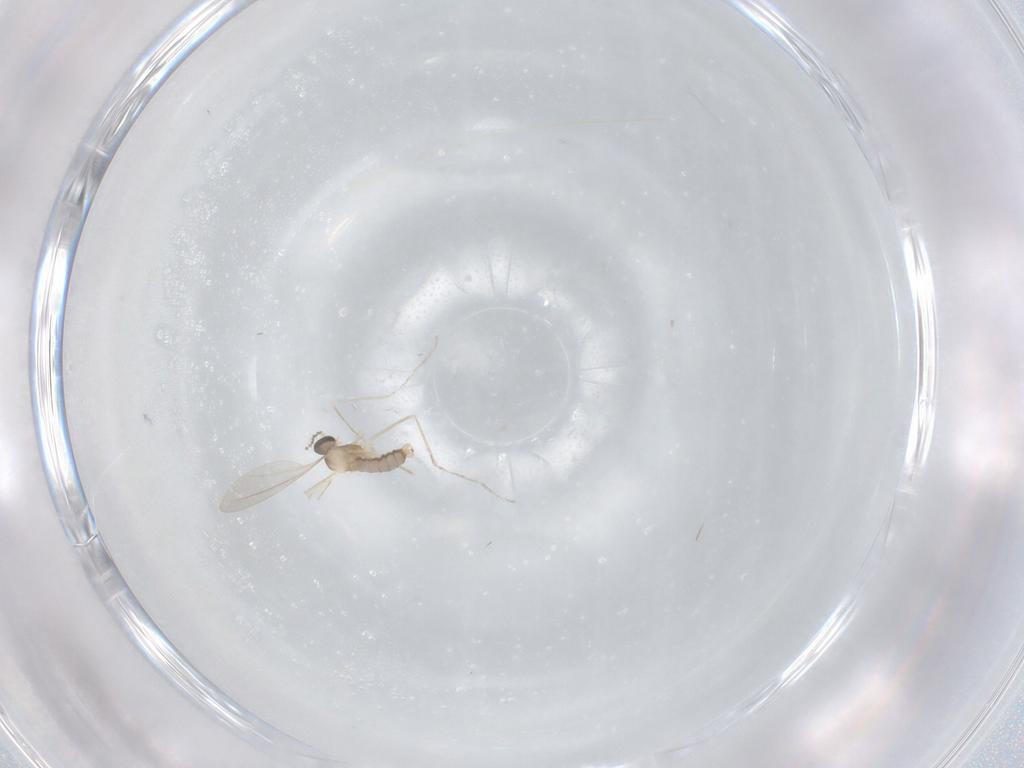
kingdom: Animalia
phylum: Arthropoda
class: Insecta
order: Diptera
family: Cecidomyiidae
